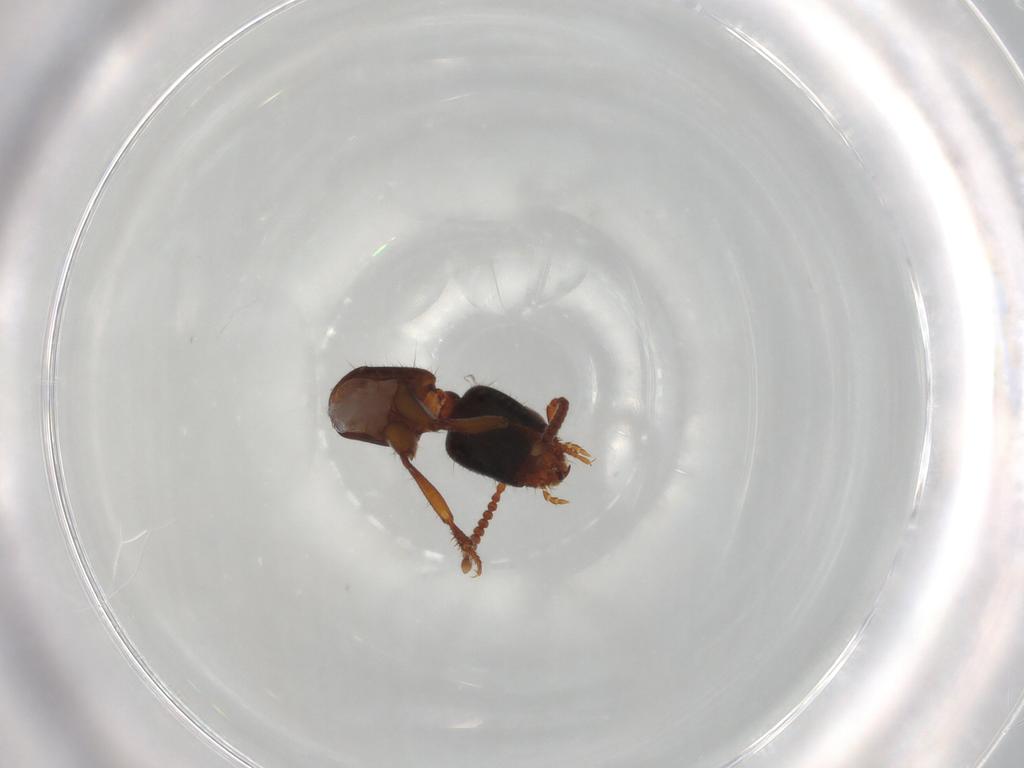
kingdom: Animalia
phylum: Arthropoda
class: Insecta
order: Coleoptera
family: Staphylinidae
